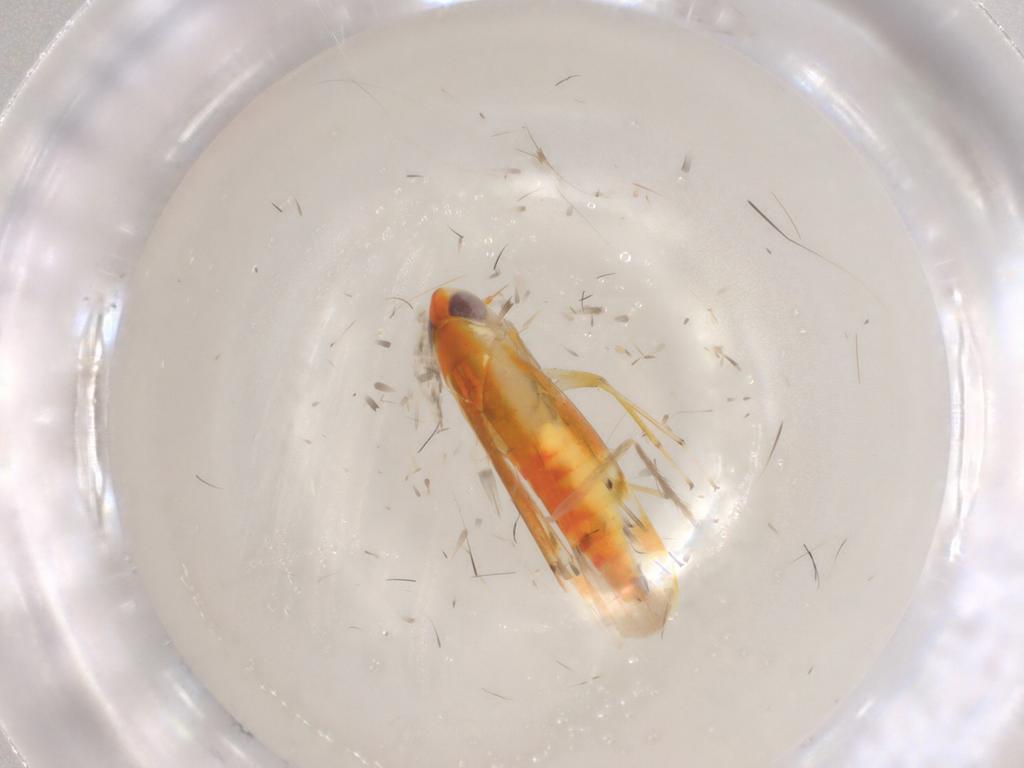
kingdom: Animalia
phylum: Arthropoda
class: Insecta
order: Hemiptera
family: Cicadellidae
